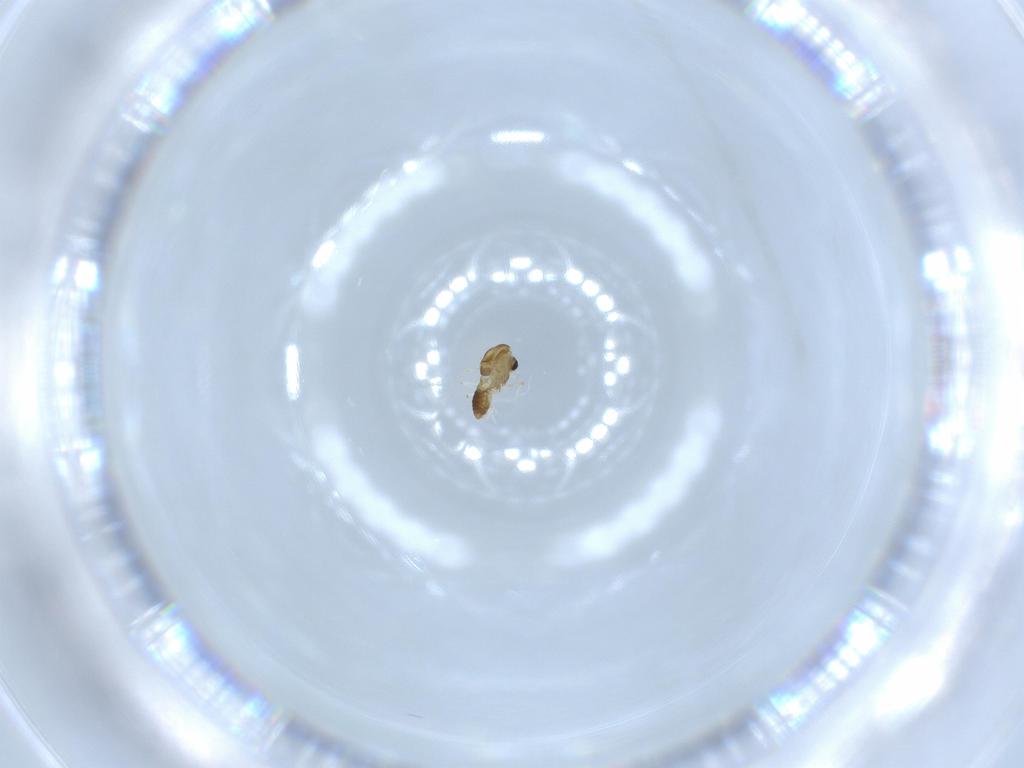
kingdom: Animalia
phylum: Arthropoda
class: Insecta
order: Diptera
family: Chironomidae
